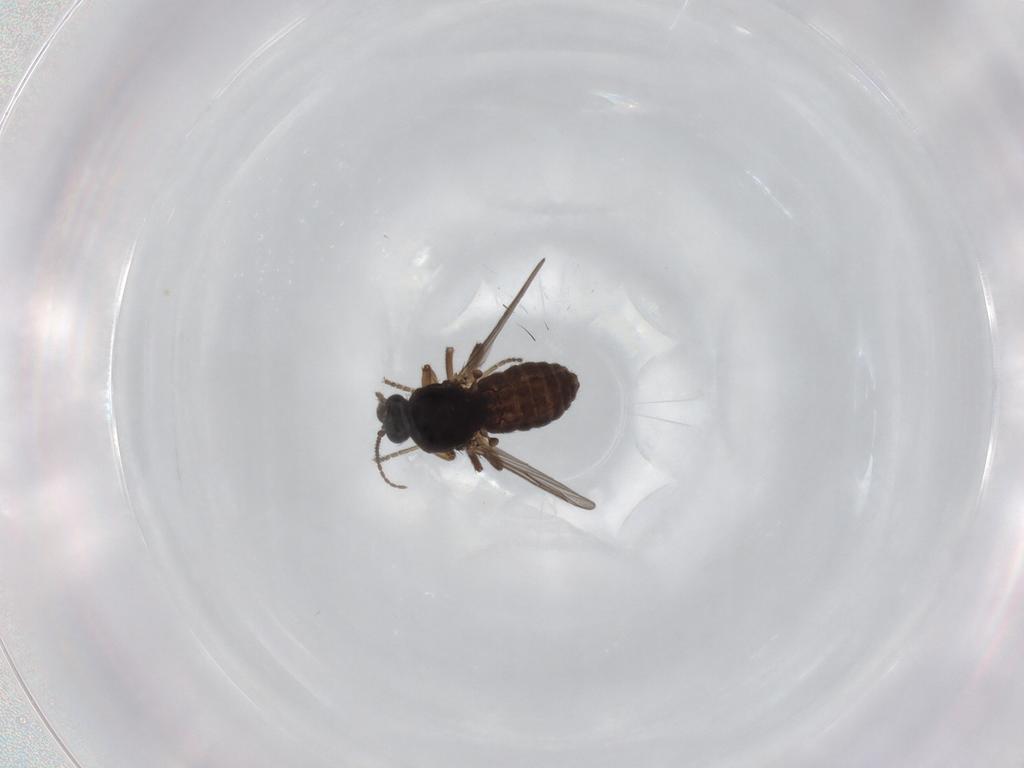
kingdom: Animalia
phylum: Arthropoda
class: Insecta
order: Diptera
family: Ceratopogonidae
